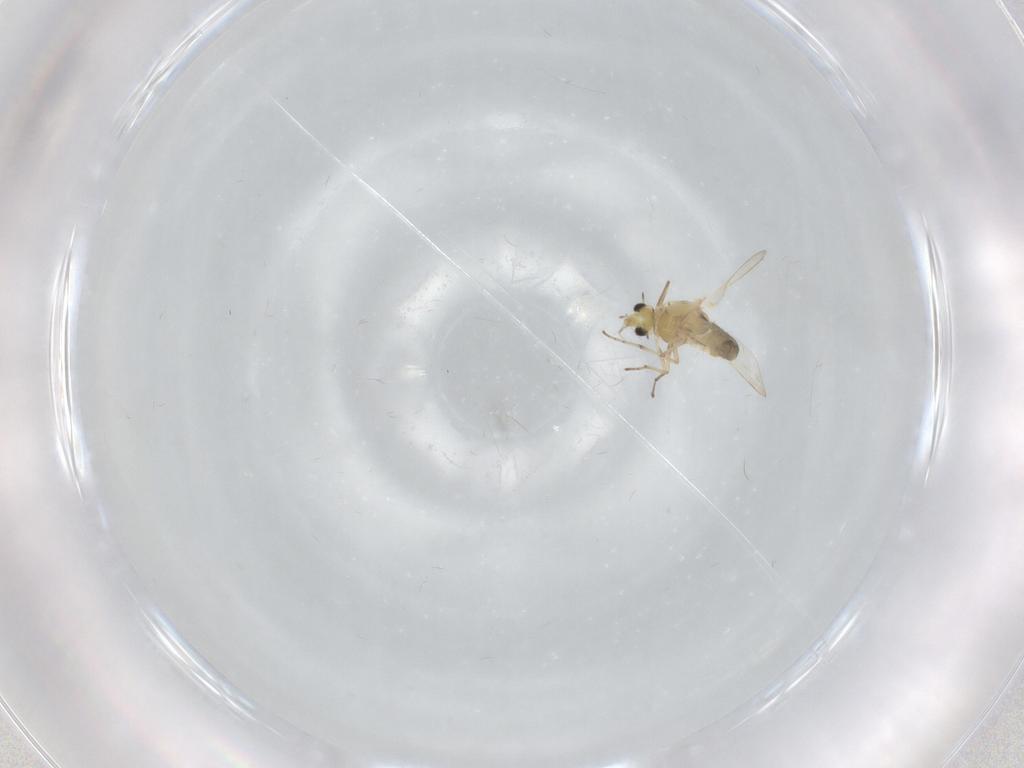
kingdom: Animalia
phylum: Arthropoda
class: Insecta
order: Diptera
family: Chironomidae
